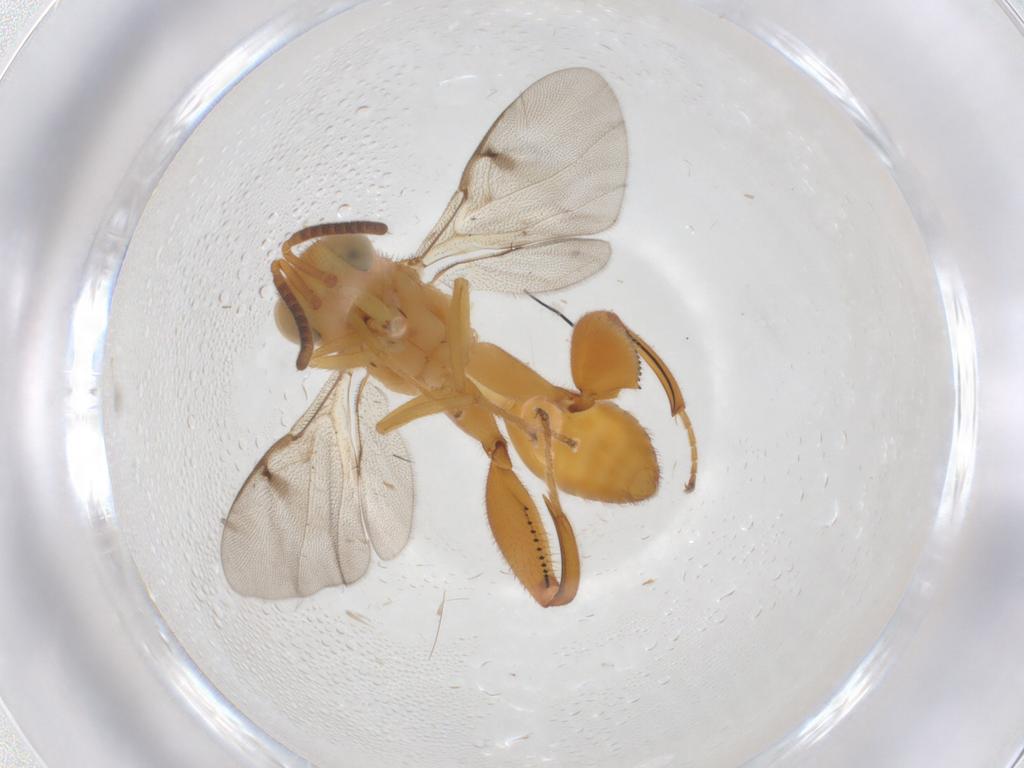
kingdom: Animalia
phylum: Arthropoda
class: Insecta
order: Hymenoptera
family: Chalcididae
